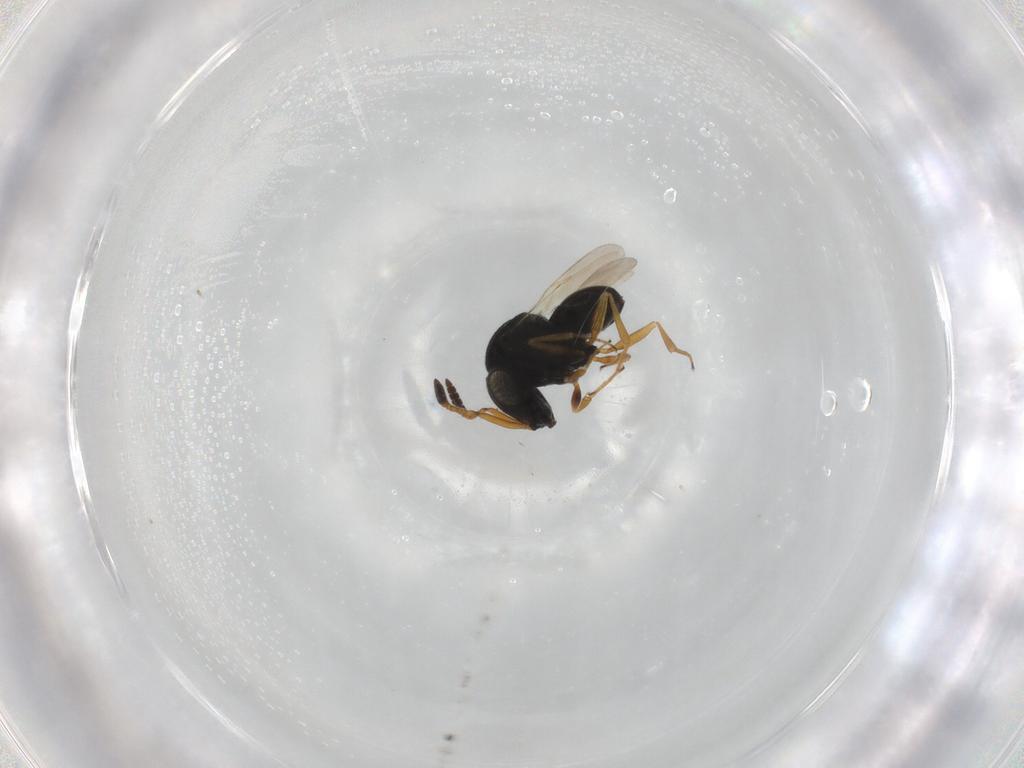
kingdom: Animalia
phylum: Arthropoda
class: Insecta
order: Hymenoptera
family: Scelionidae
